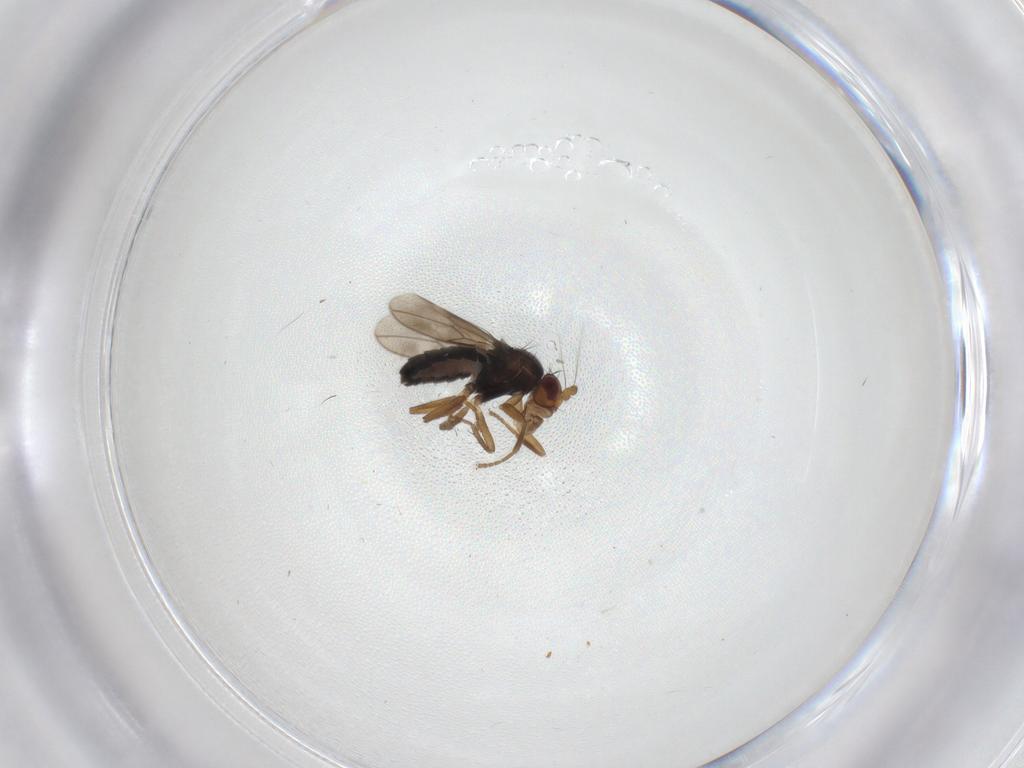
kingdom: Animalia
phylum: Arthropoda
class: Insecta
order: Diptera
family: Sphaeroceridae
